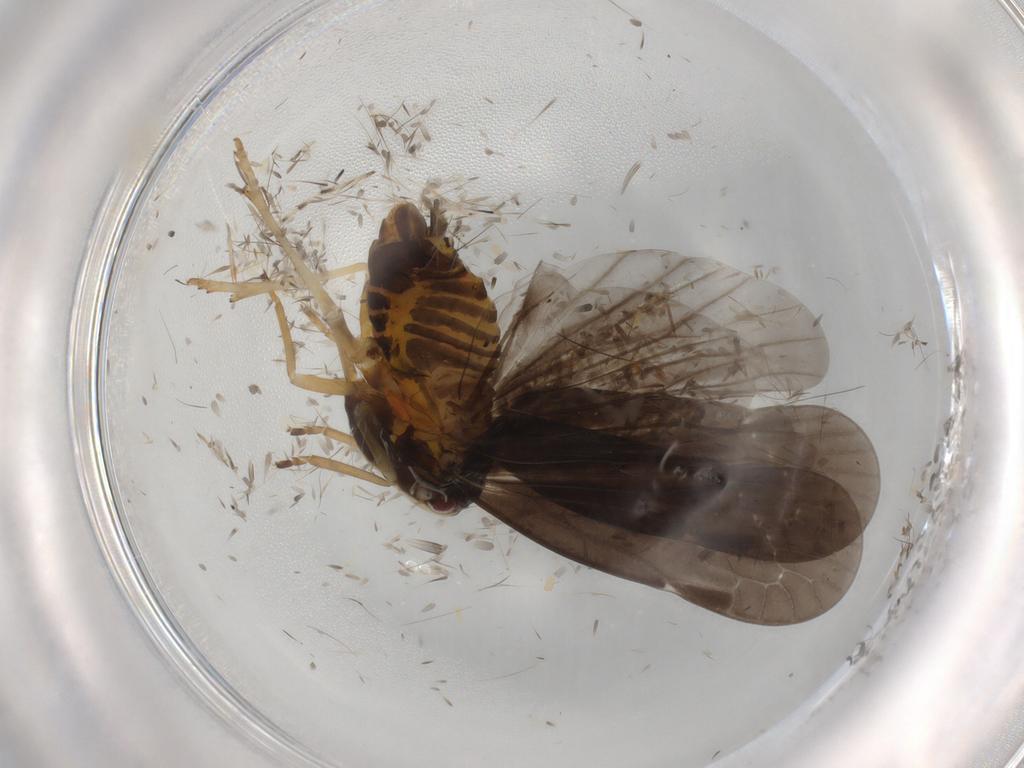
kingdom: Animalia
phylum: Arthropoda
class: Insecta
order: Hemiptera
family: Derbidae
